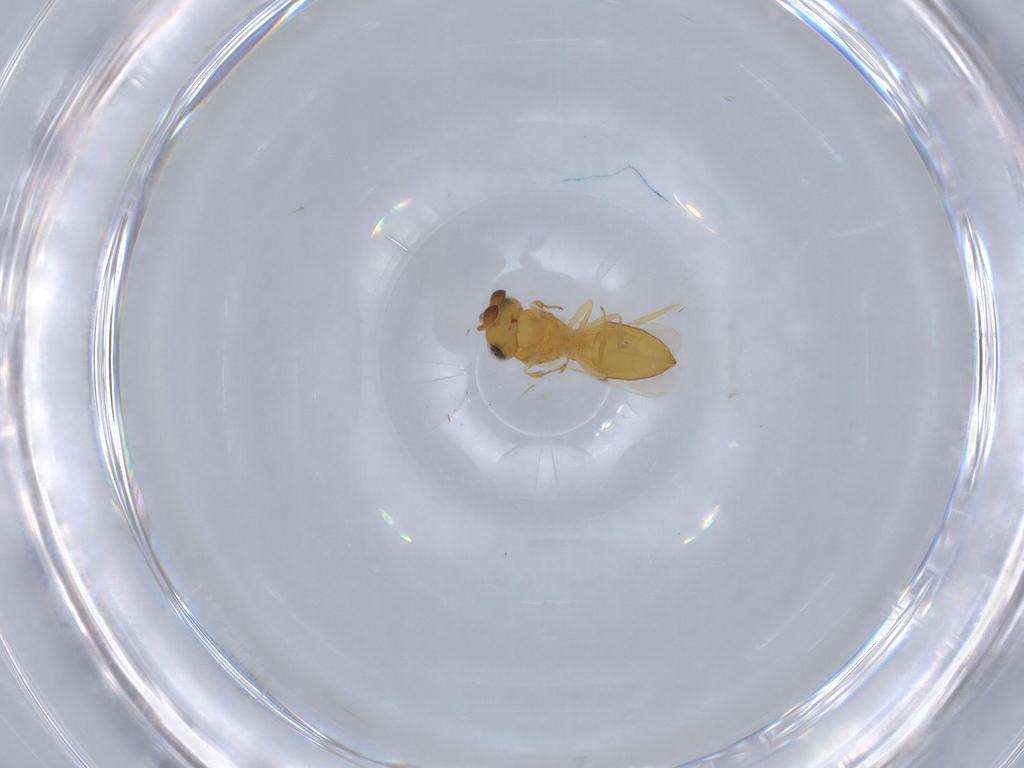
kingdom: Animalia
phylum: Arthropoda
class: Insecta
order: Hymenoptera
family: Scelionidae
